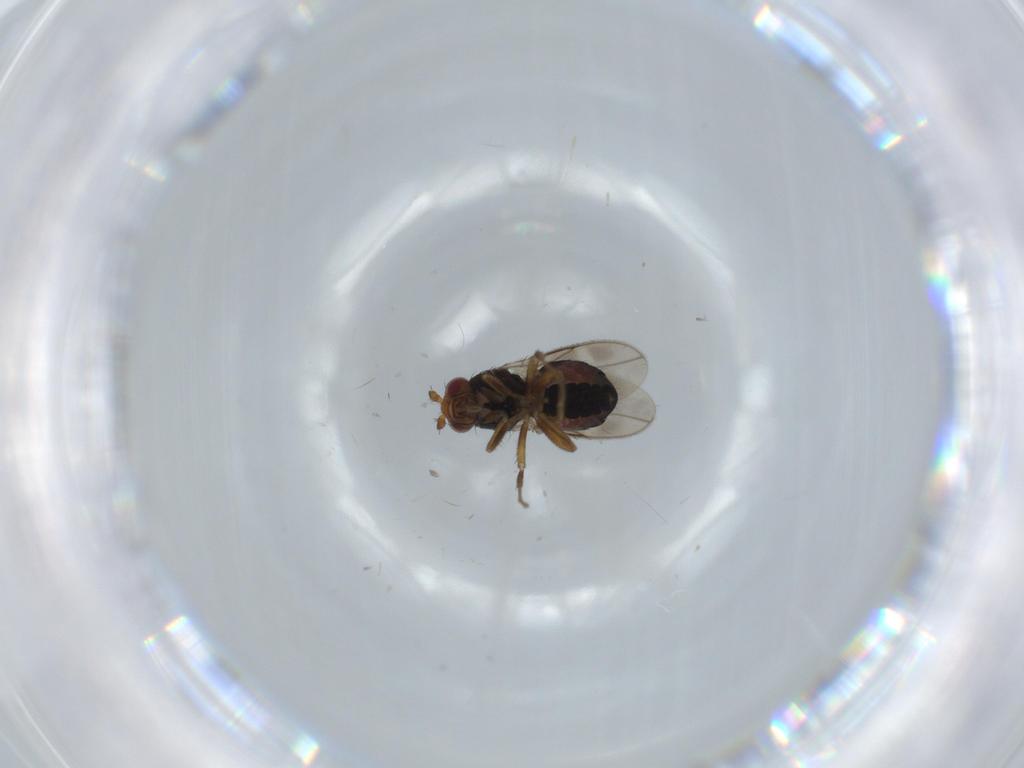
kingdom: Animalia
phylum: Arthropoda
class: Insecta
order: Diptera
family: Sphaeroceridae
